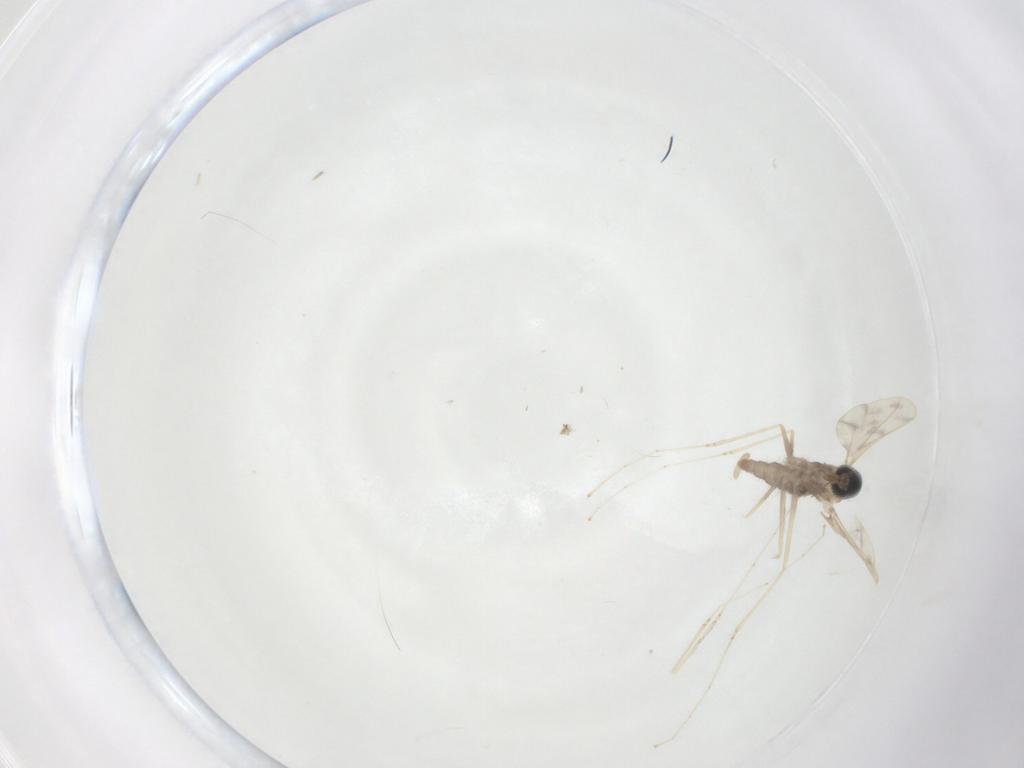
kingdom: Animalia
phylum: Arthropoda
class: Insecta
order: Diptera
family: Cecidomyiidae
